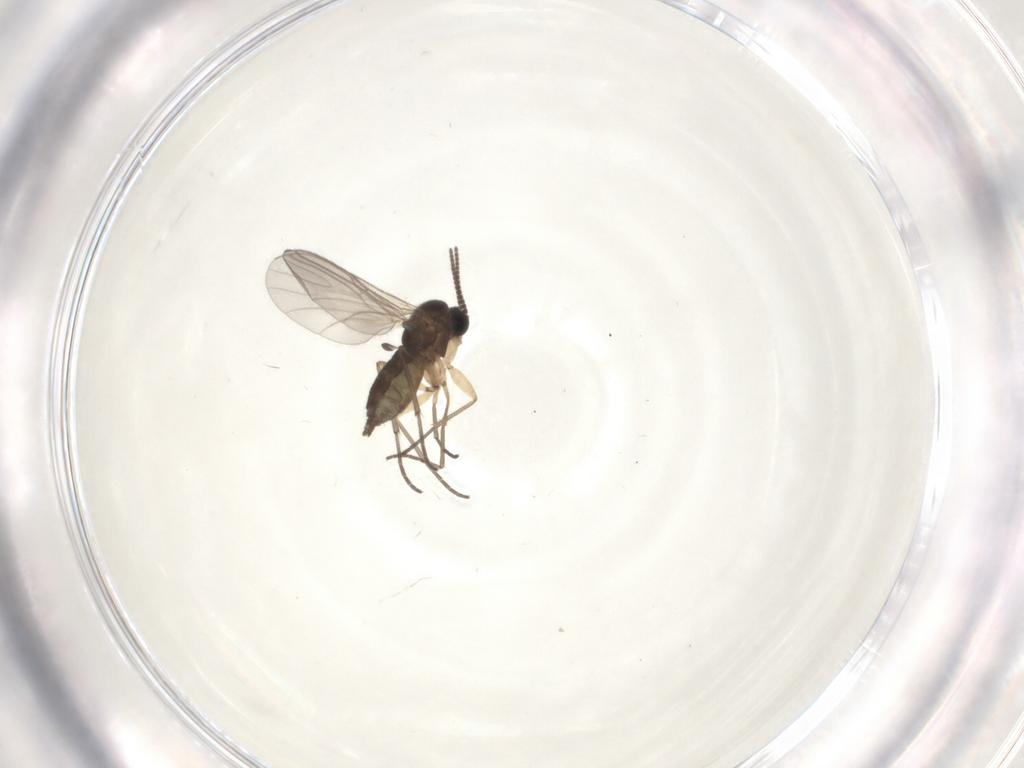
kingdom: Animalia
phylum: Arthropoda
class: Insecta
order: Diptera
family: Sciaridae
